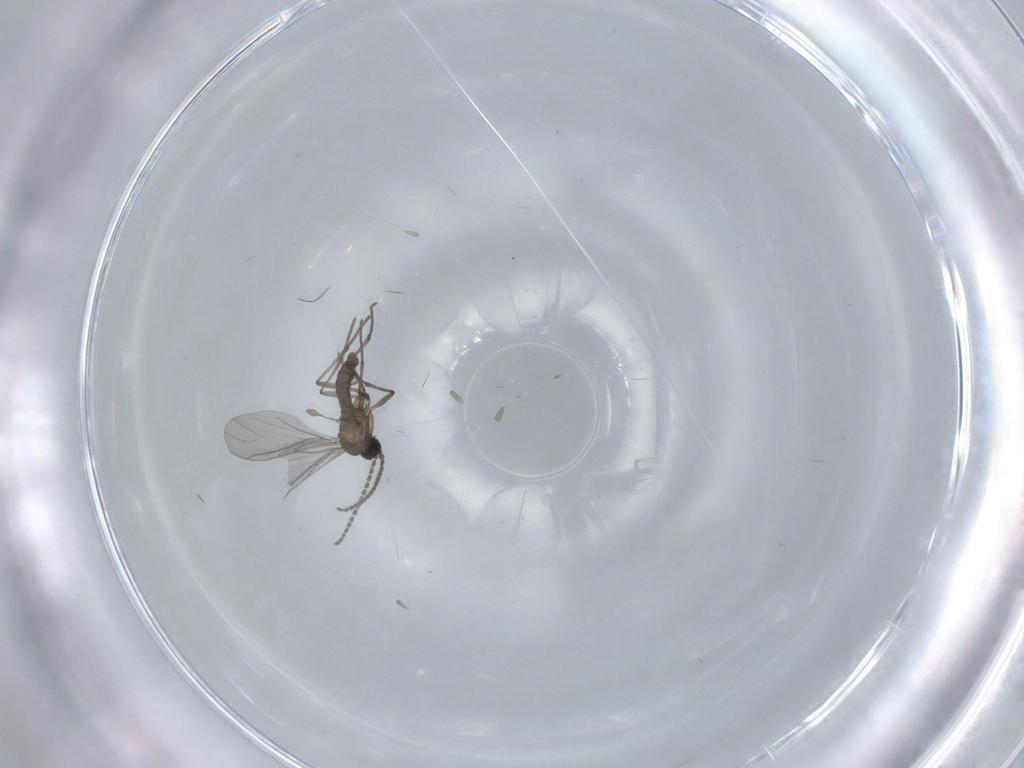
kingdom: Animalia
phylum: Arthropoda
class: Insecta
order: Diptera
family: Sciaridae
